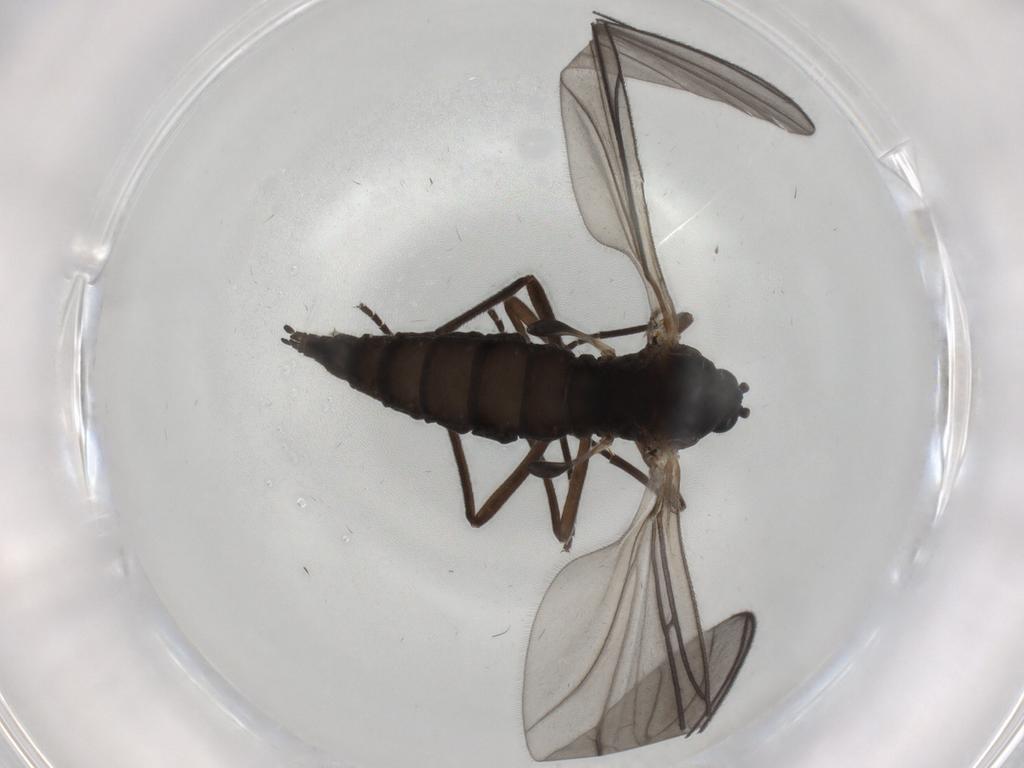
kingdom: Animalia
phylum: Arthropoda
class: Insecta
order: Diptera
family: Sciaridae
